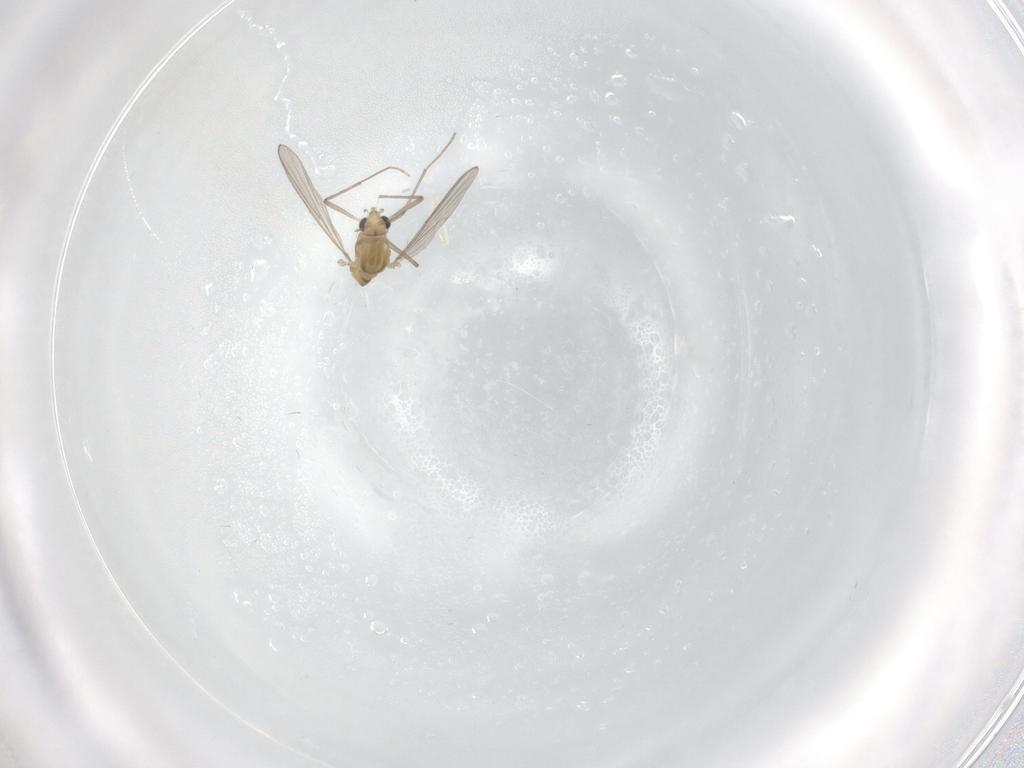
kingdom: Animalia
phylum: Arthropoda
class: Insecta
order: Diptera
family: Chironomidae
